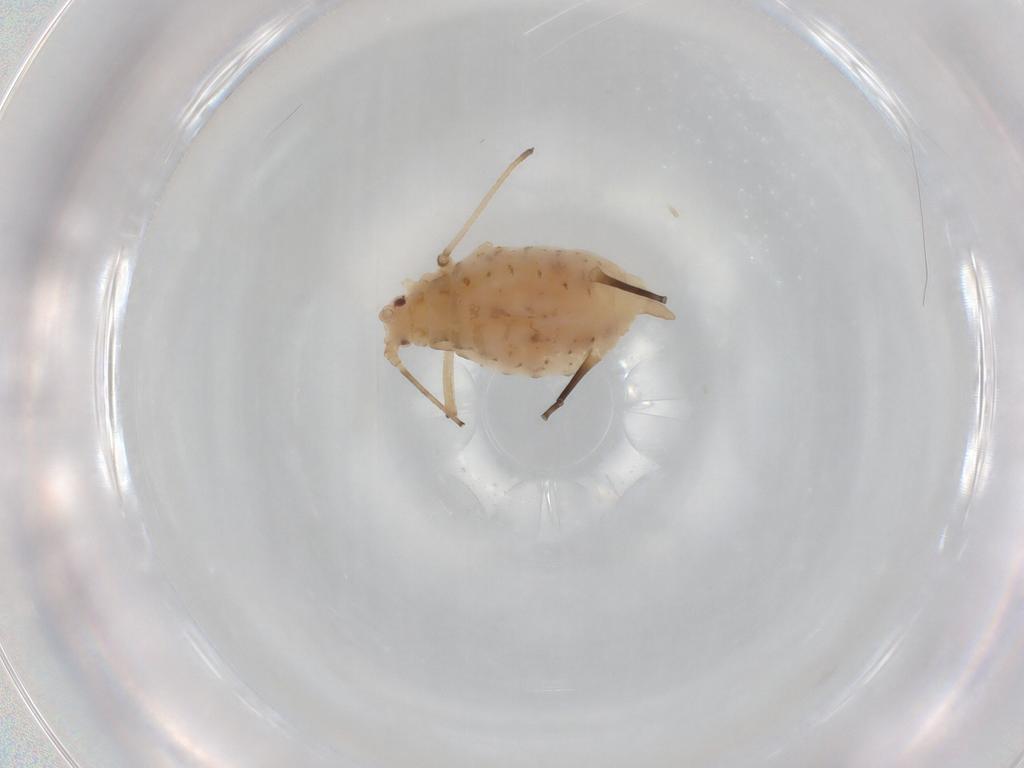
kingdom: Animalia
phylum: Arthropoda
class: Insecta
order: Hemiptera
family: Aphididae
